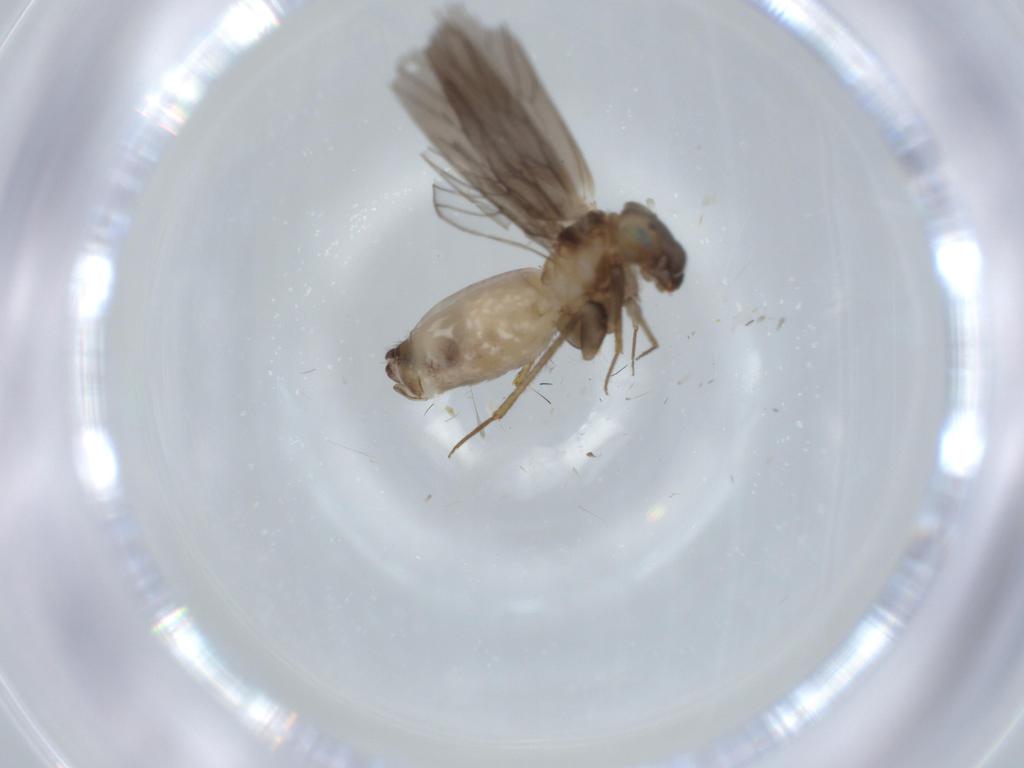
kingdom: Animalia
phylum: Arthropoda
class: Insecta
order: Psocodea
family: Lepidopsocidae
